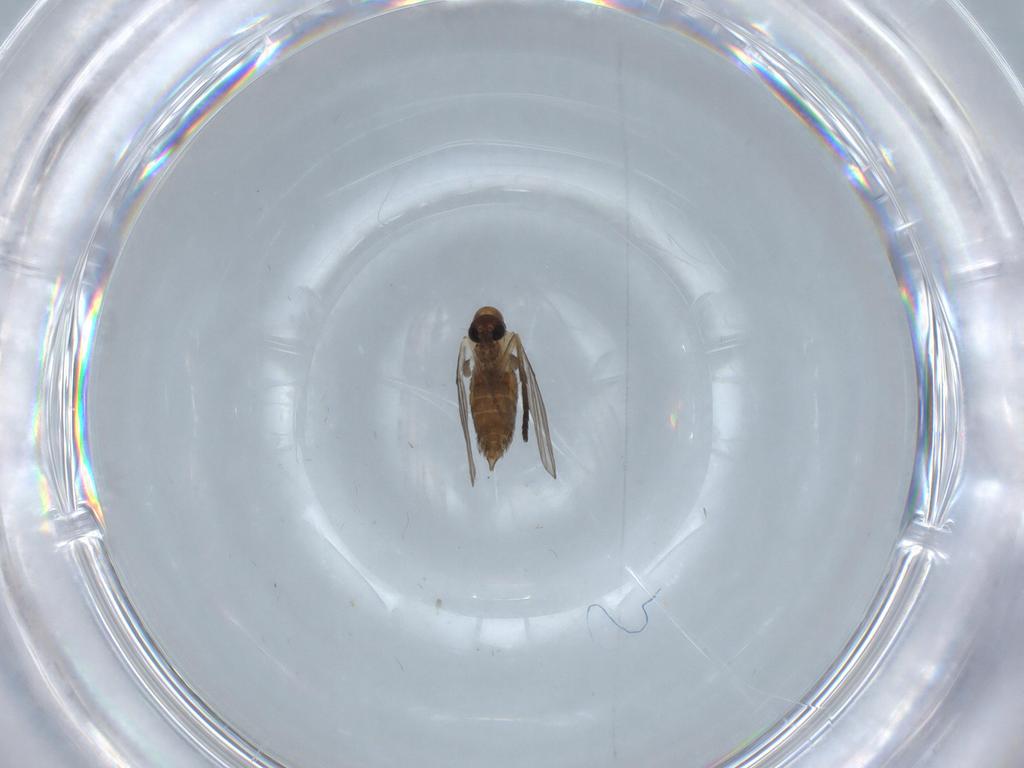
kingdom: Animalia
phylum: Arthropoda
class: Insecta
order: Diptera
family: Psychodidae
